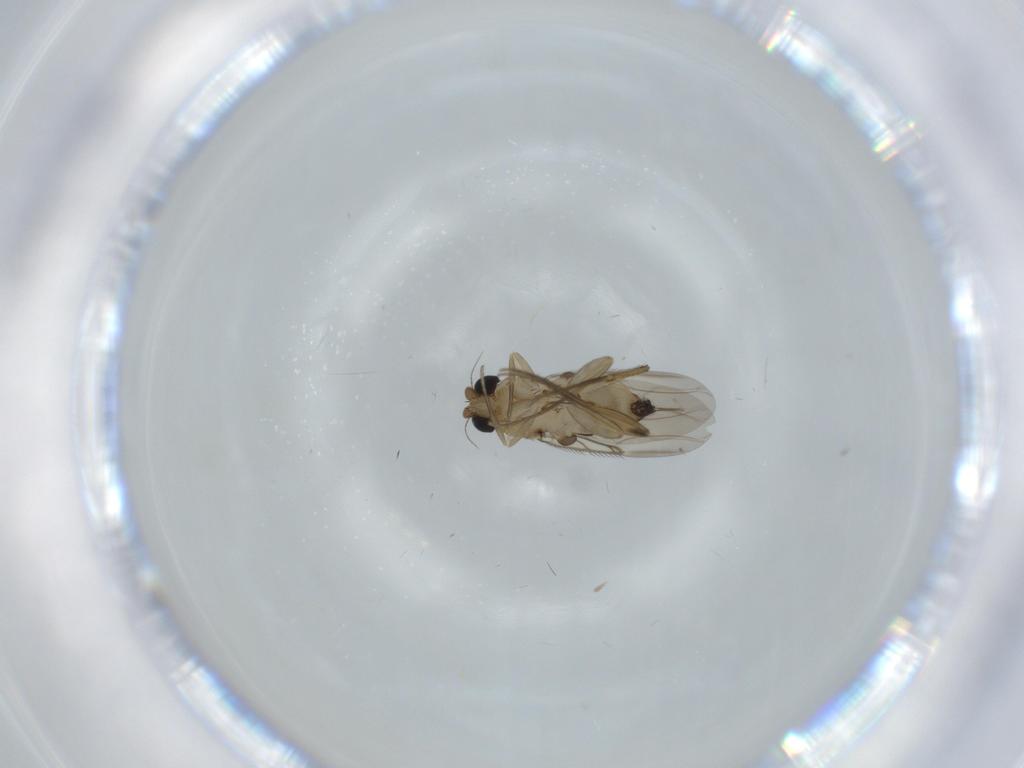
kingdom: Animalia
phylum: Arthropoda
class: Insecta
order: Diptera
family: Phoridae
